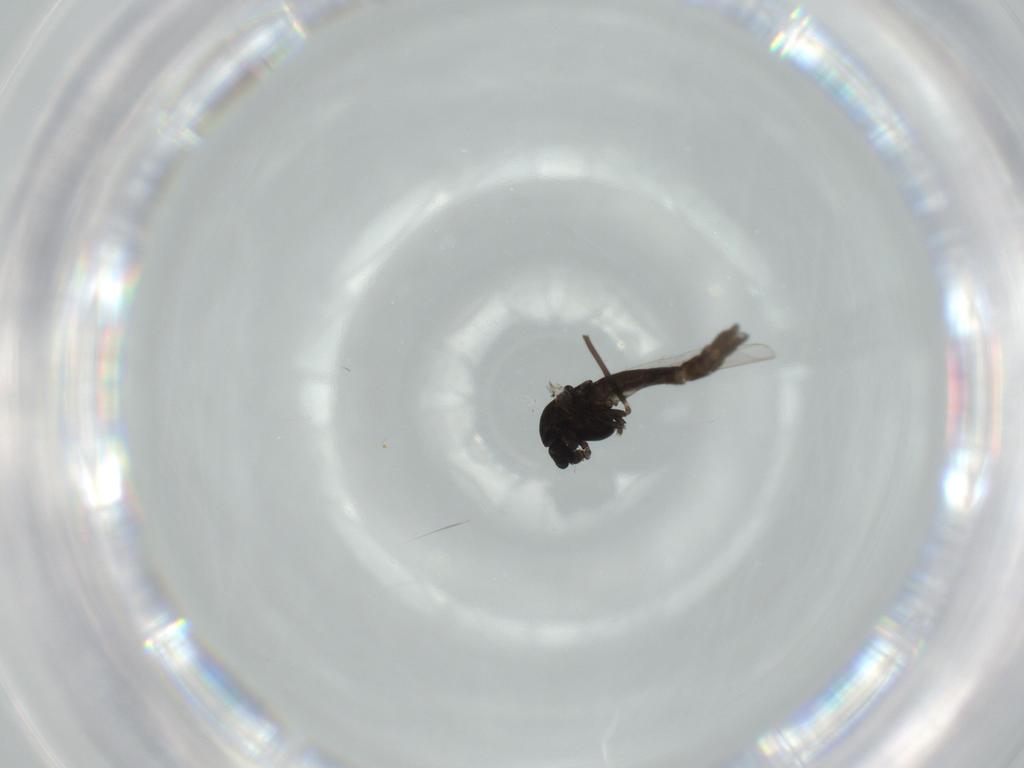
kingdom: Animalia
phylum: Arthropoda
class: Insecta
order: Diptera
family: Chironomidae
